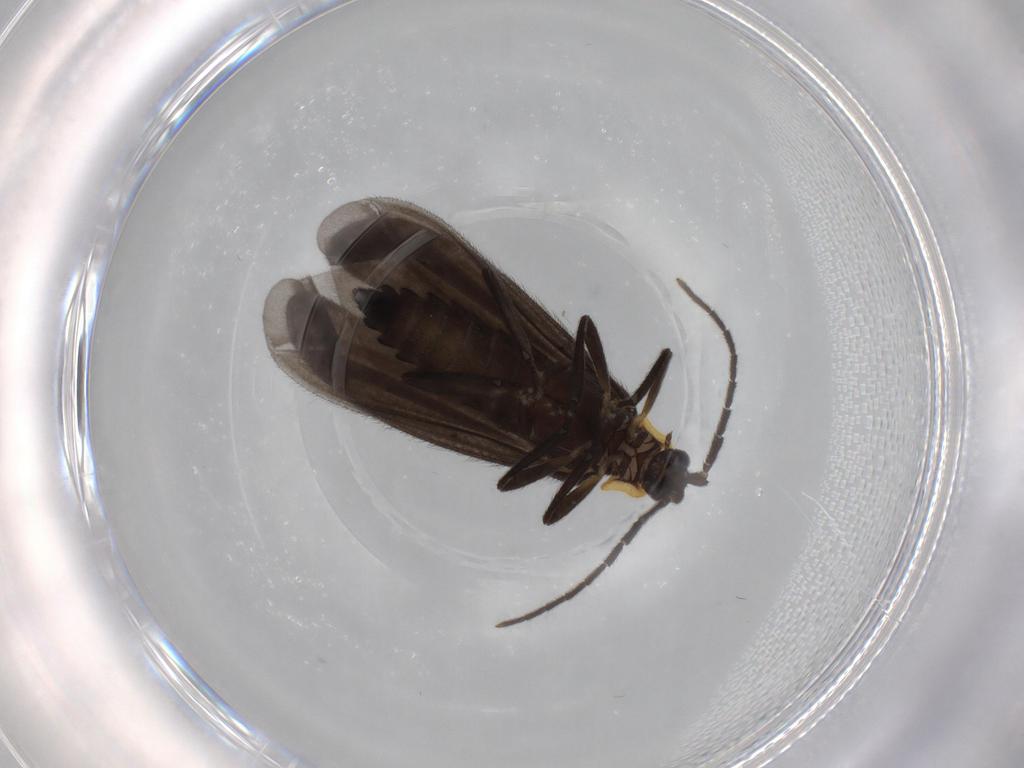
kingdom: Animalia
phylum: Arthropoda
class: Insecta
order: Coleoptera
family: Lycidae
